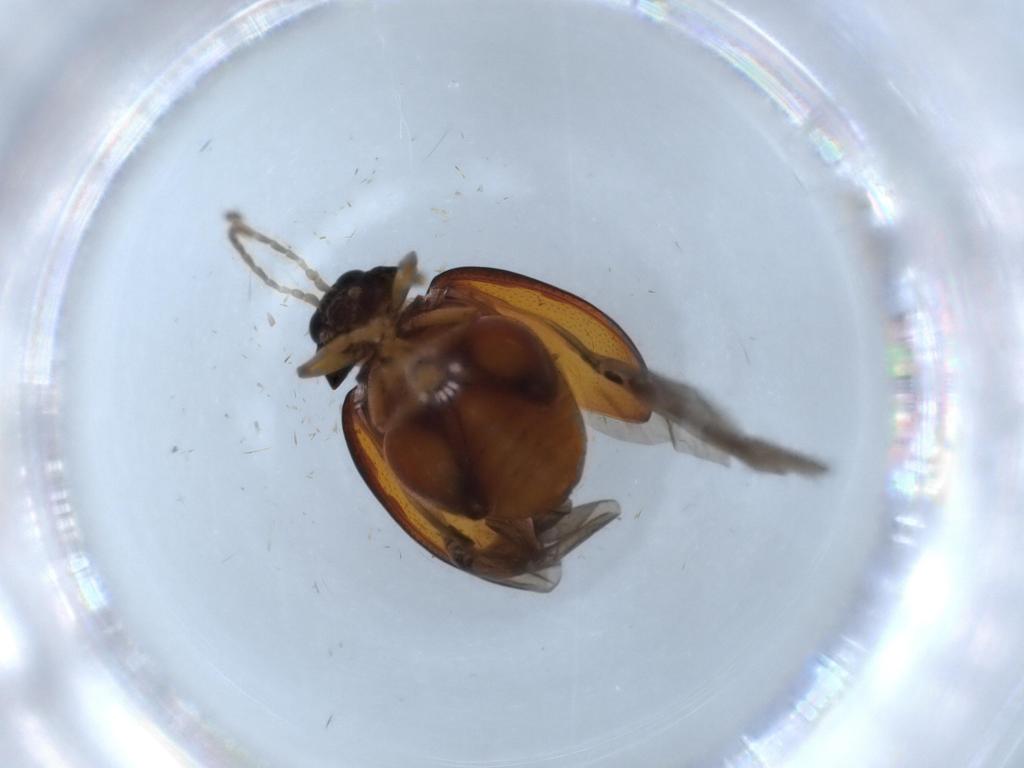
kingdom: Animalia
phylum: Arthropoda
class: Insecta
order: Coleoptera
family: Chrysomelidae
